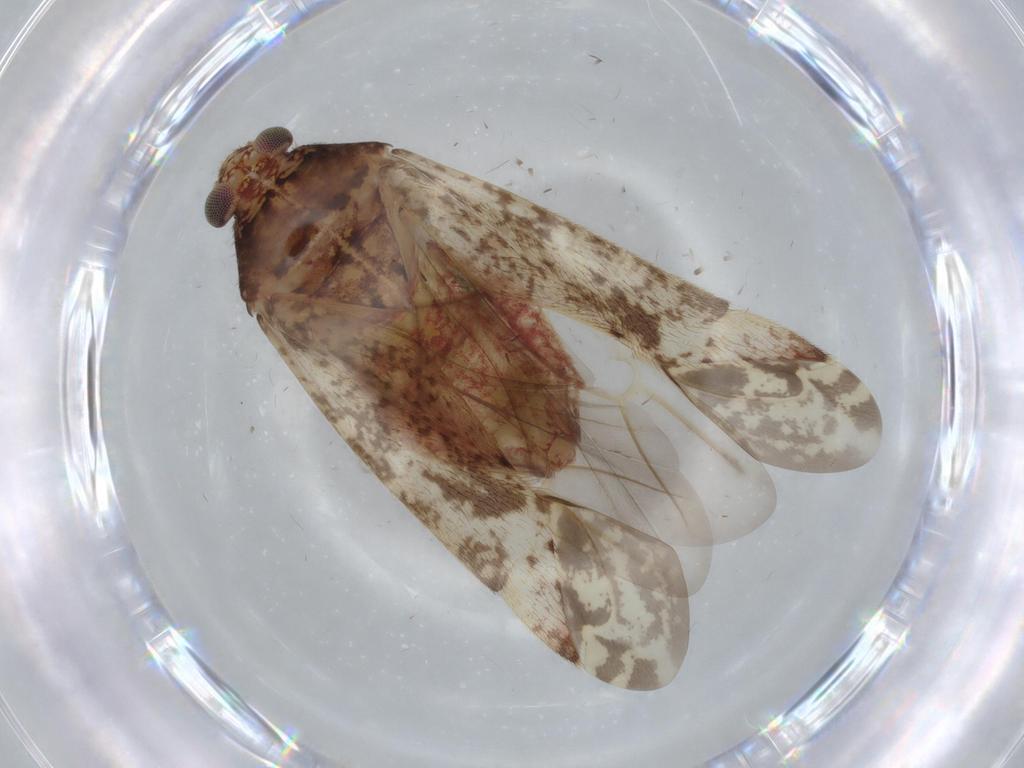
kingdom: Animalia
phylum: Arthropoda
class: Insecta
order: Hemiptera
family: Miridae
